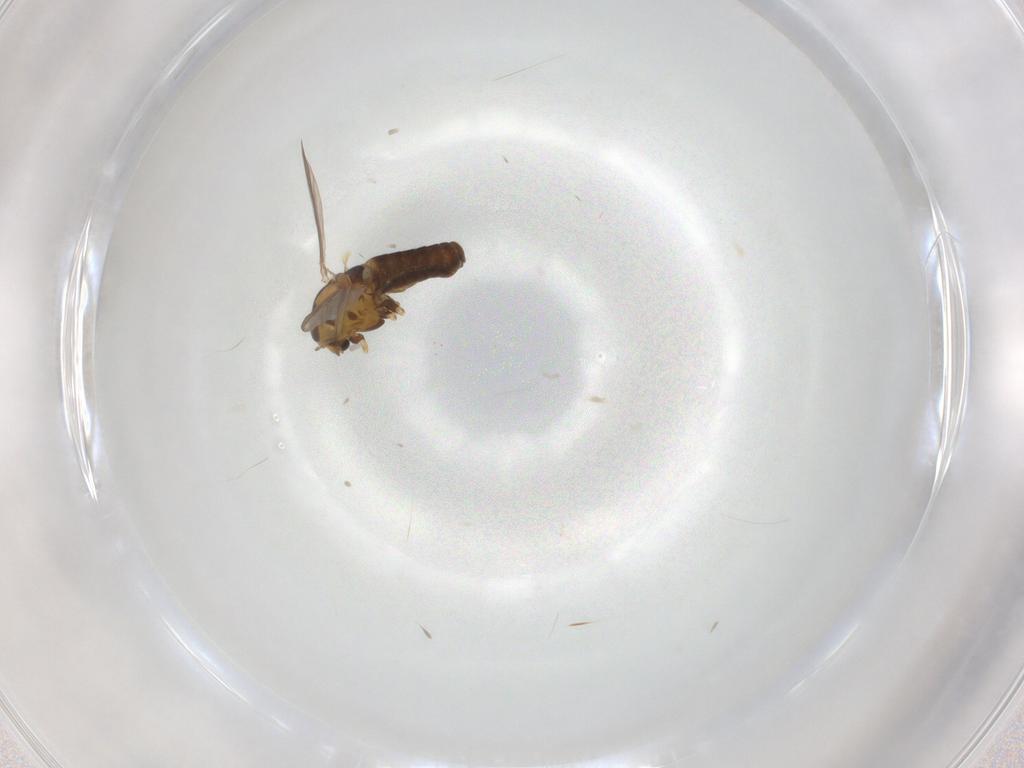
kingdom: Animalia
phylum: Arthropoda
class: Insecta
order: Diptera
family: Chironomidae
